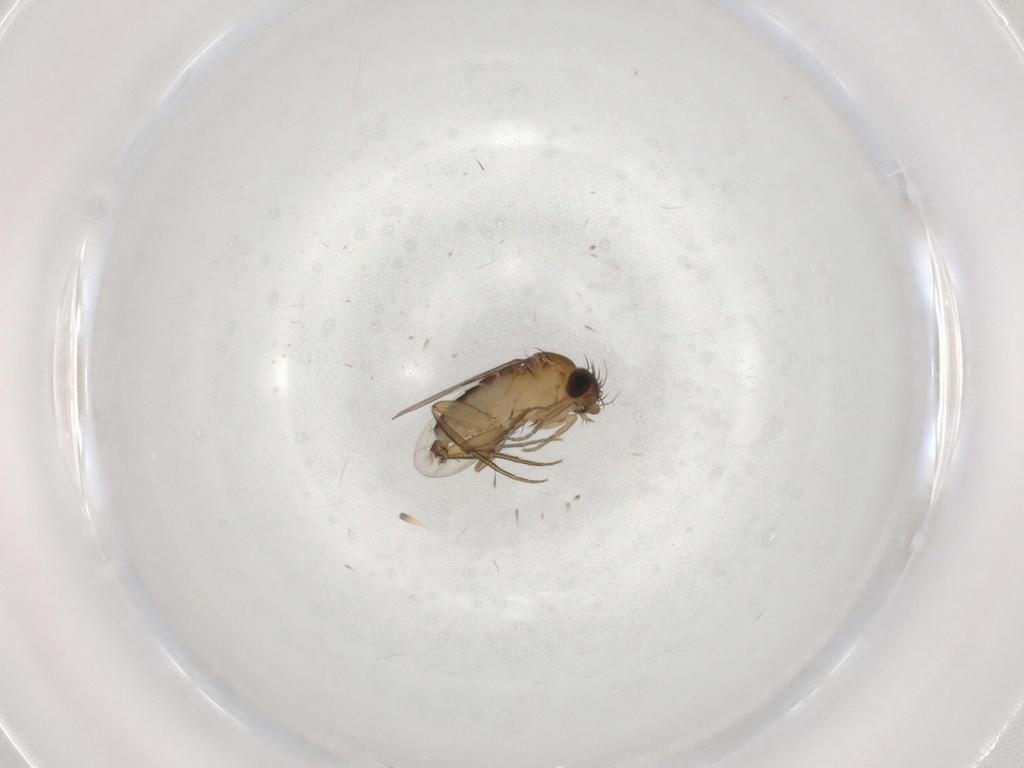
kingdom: Animalia
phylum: Arthropoda
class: Insecta
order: Diptera
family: Phoridae
